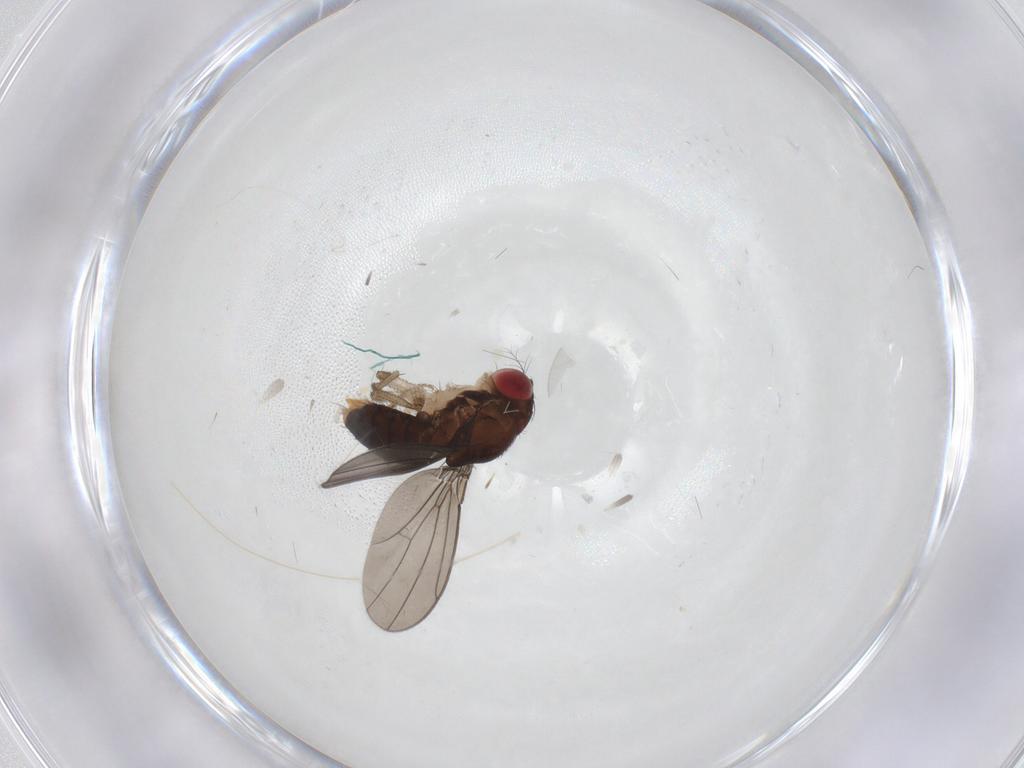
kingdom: Animalia
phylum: Arthropoda
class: Insecta
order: Diptera
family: Drosophilidae
